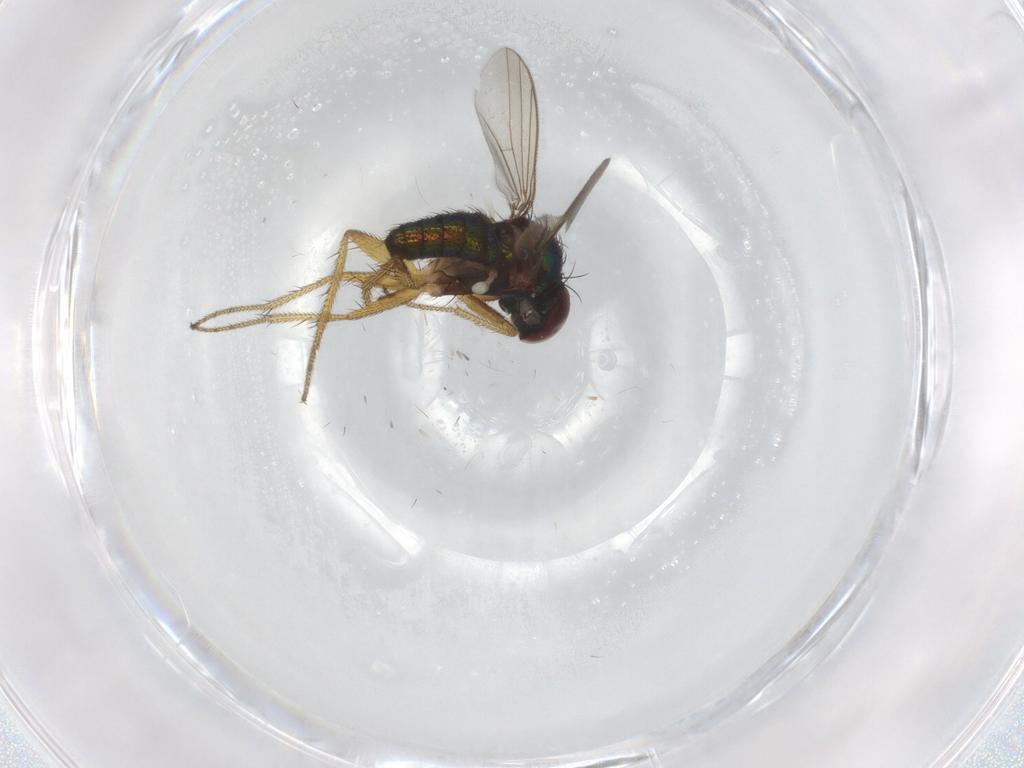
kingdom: Animalia
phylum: Arthropoda
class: Insecta
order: Diptera
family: Dolichopodidae
